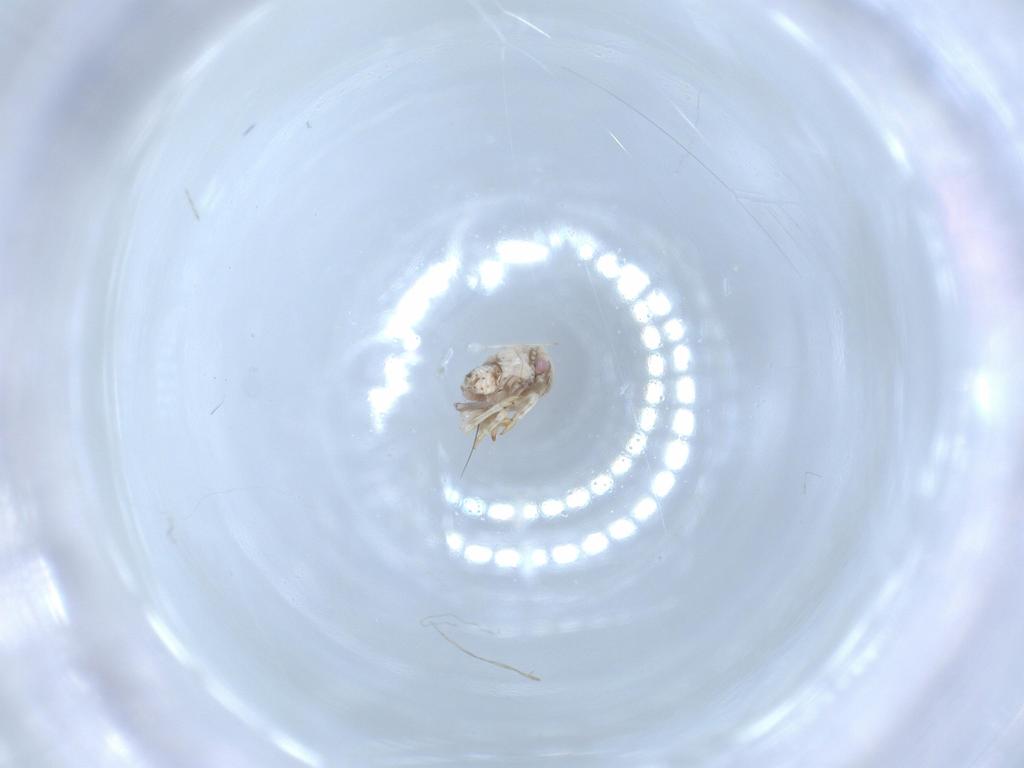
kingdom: Animalia
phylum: Arthropoda
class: Insecta
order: Hemiptera
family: Acanaloniidae
